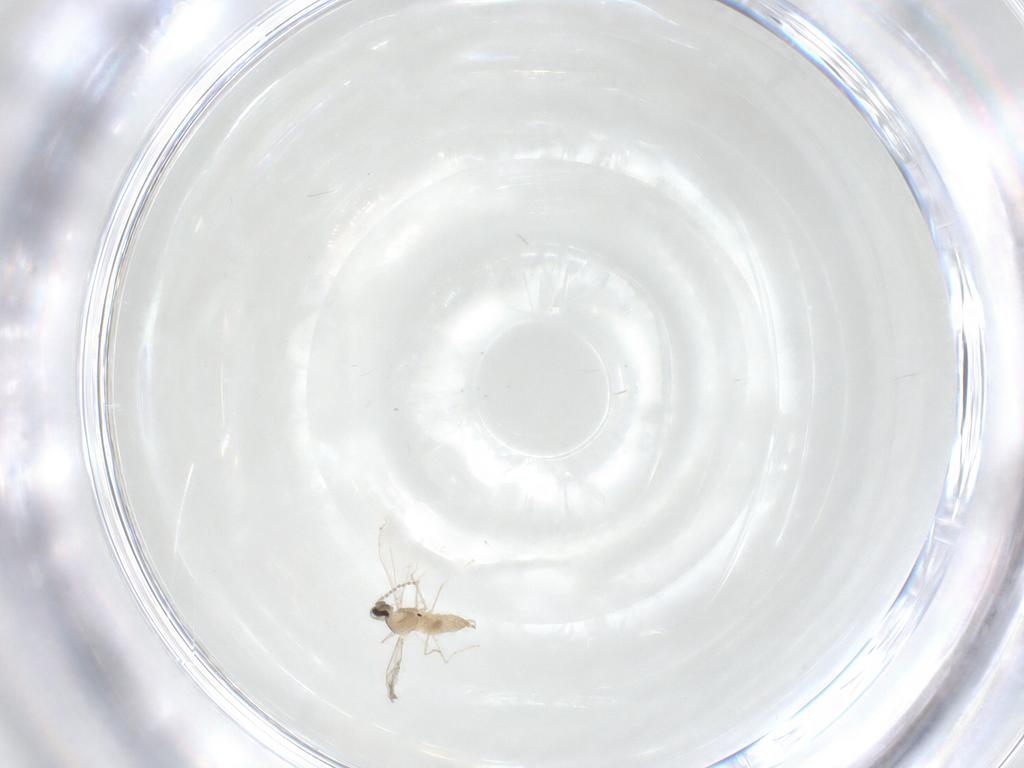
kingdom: Animalia
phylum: Arthropoda
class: Insecta
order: Diptera
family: Cecidomyiidae
